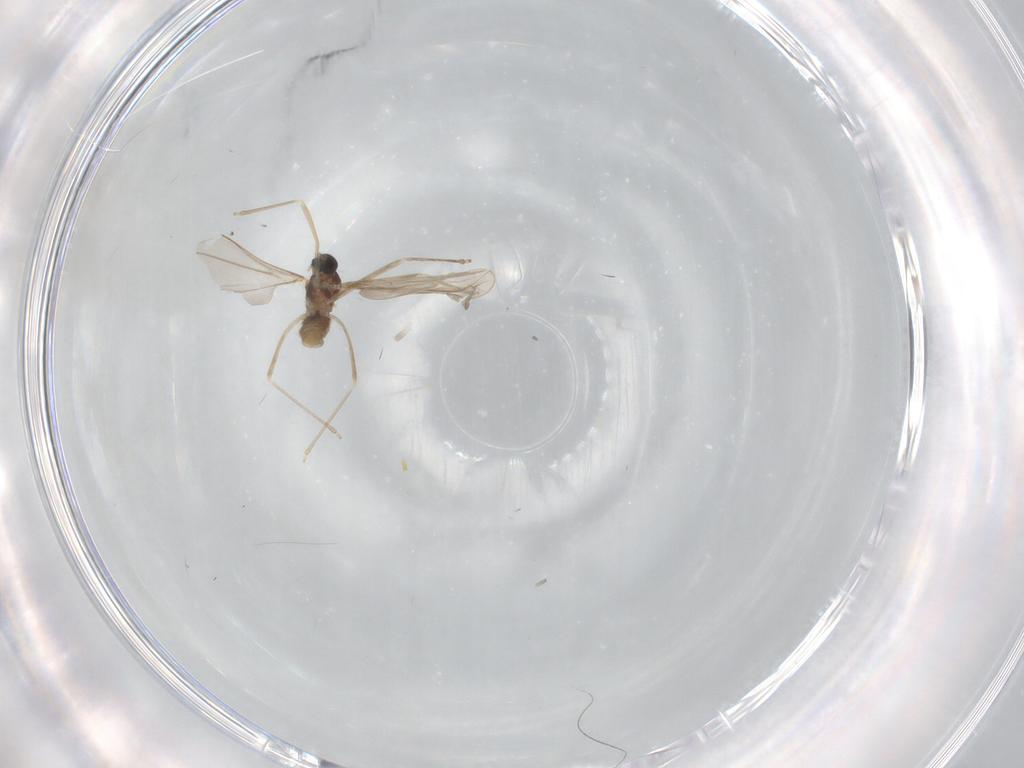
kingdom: Animalia
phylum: Arthropoda
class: Insecta
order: Diptera
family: Cecidomyiidae
